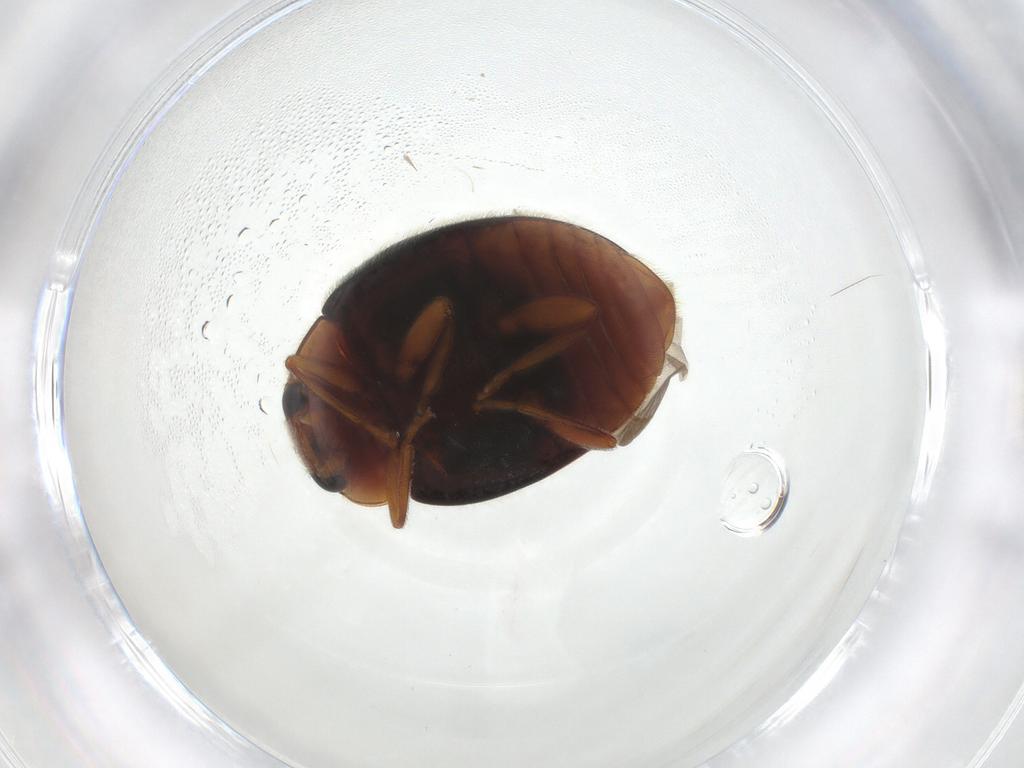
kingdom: Animalia
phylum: Arthropoda
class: Insecta
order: Coleoptera
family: Coccinellidae
